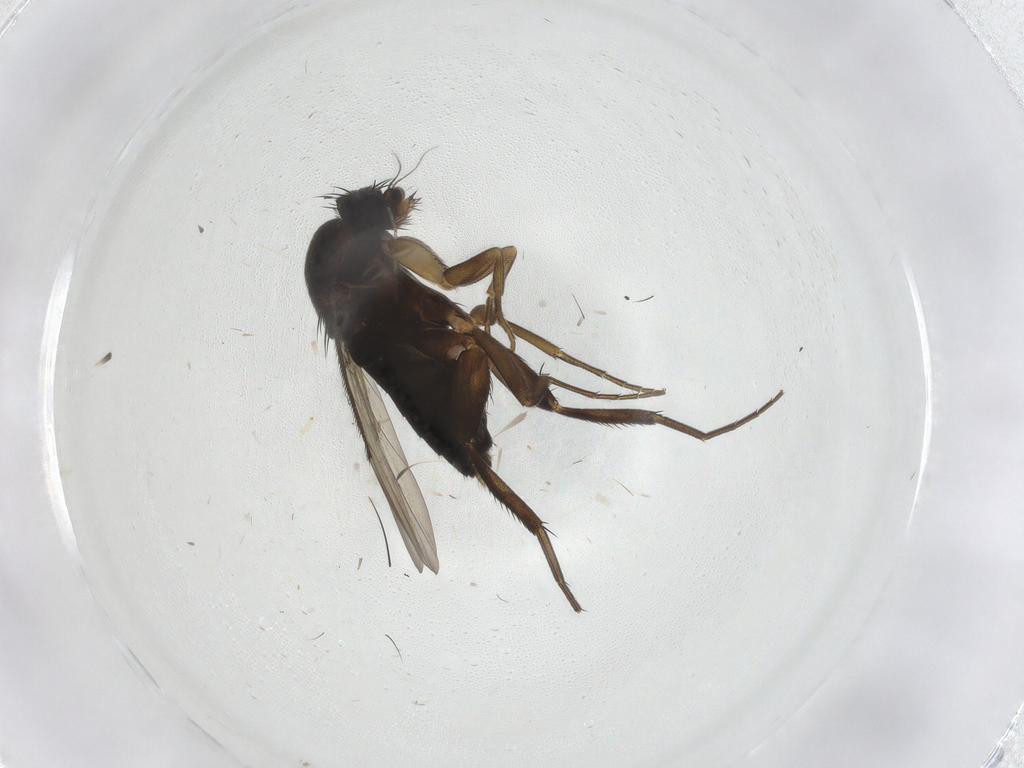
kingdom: Animalia
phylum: Arthropoda
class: Insecta
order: Diptera
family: Phoridae
